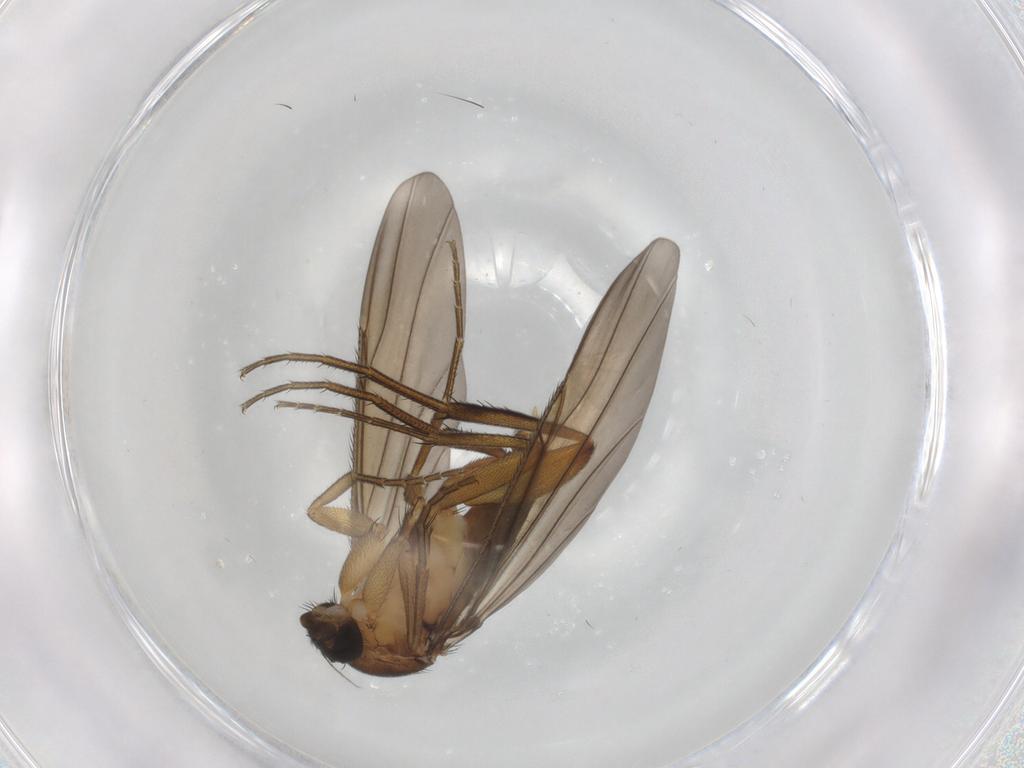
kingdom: Animalia
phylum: Arthropoda
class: Insecta
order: Diptera
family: Phoridae
